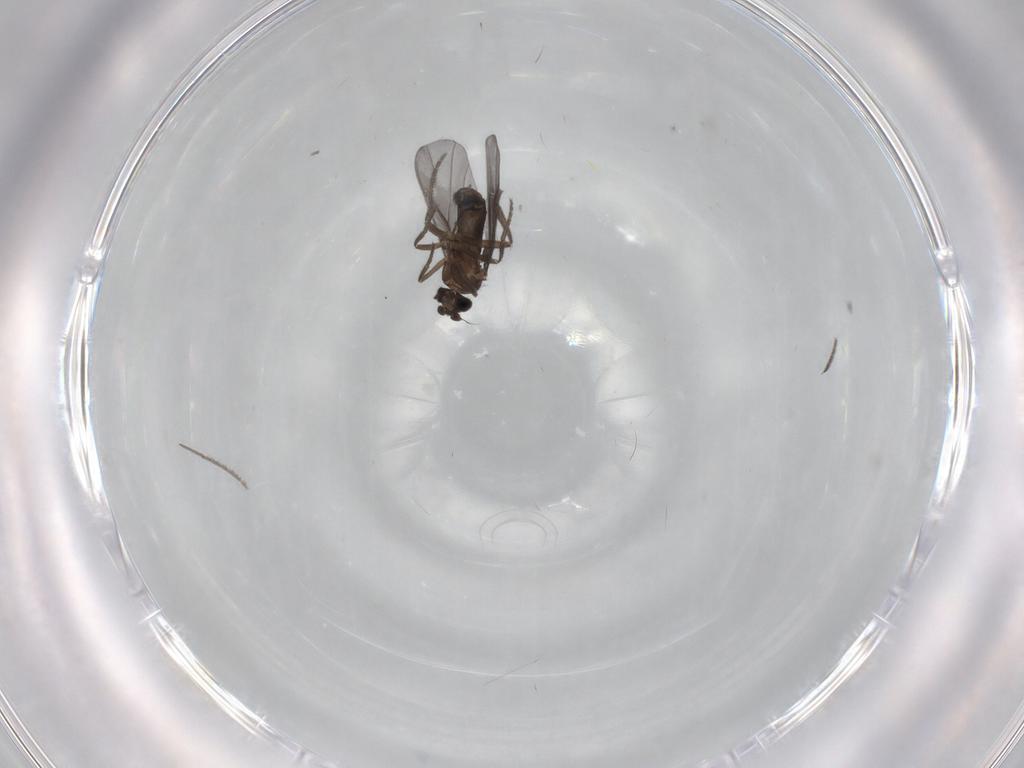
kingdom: Animalia
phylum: Arthropoda
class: Insecta
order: Diptera
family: Phoridae
